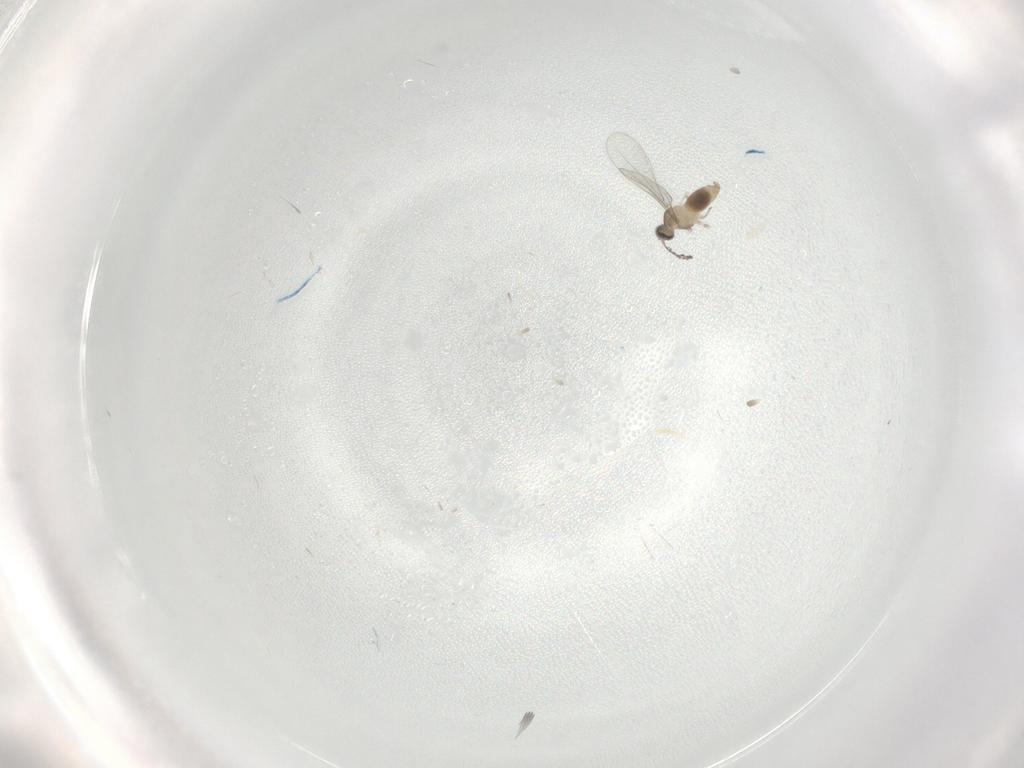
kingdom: Animalia
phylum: Arthropoda
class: Insecta
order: Diptera
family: Cecidomyiidae
